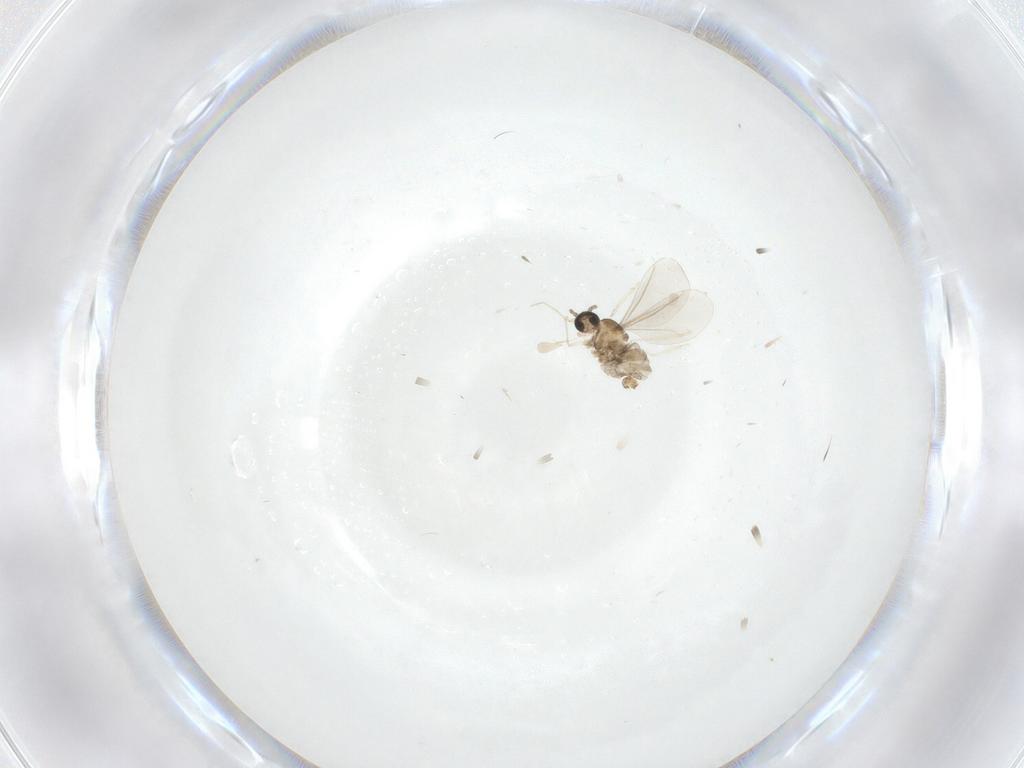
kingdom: Animalia
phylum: Arthropoda
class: Insecta
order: Diptera
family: Cecidomyiidae
